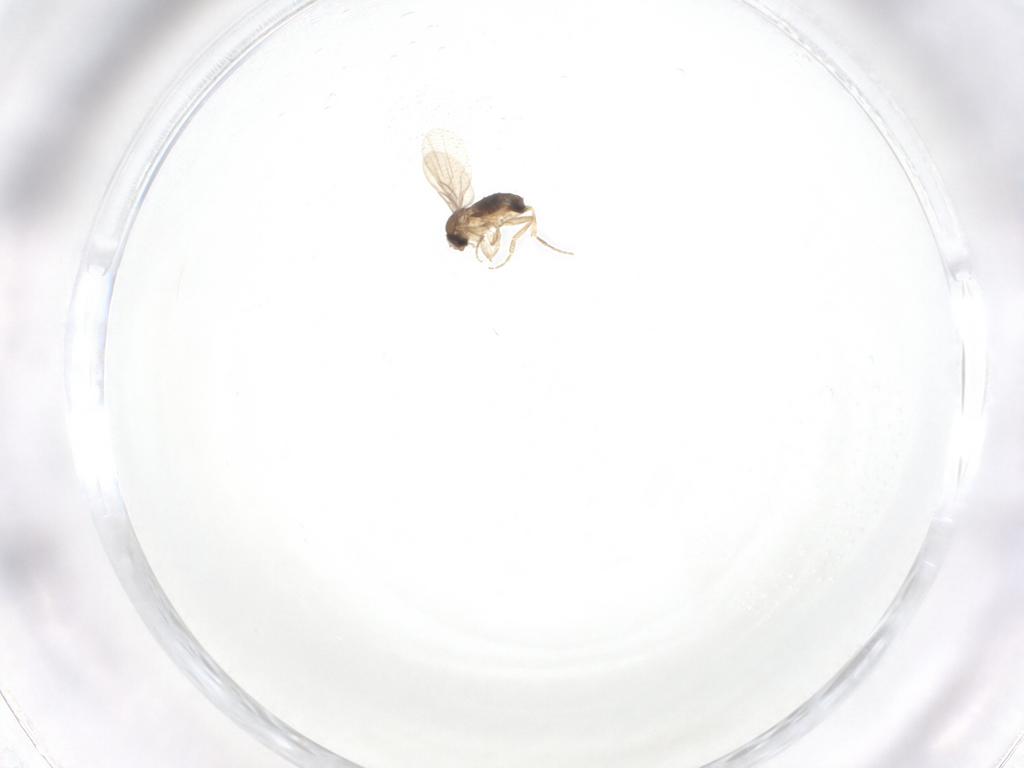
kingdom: Animalia
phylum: Arthropoda
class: Insecta
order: Diptera
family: Phoridae
